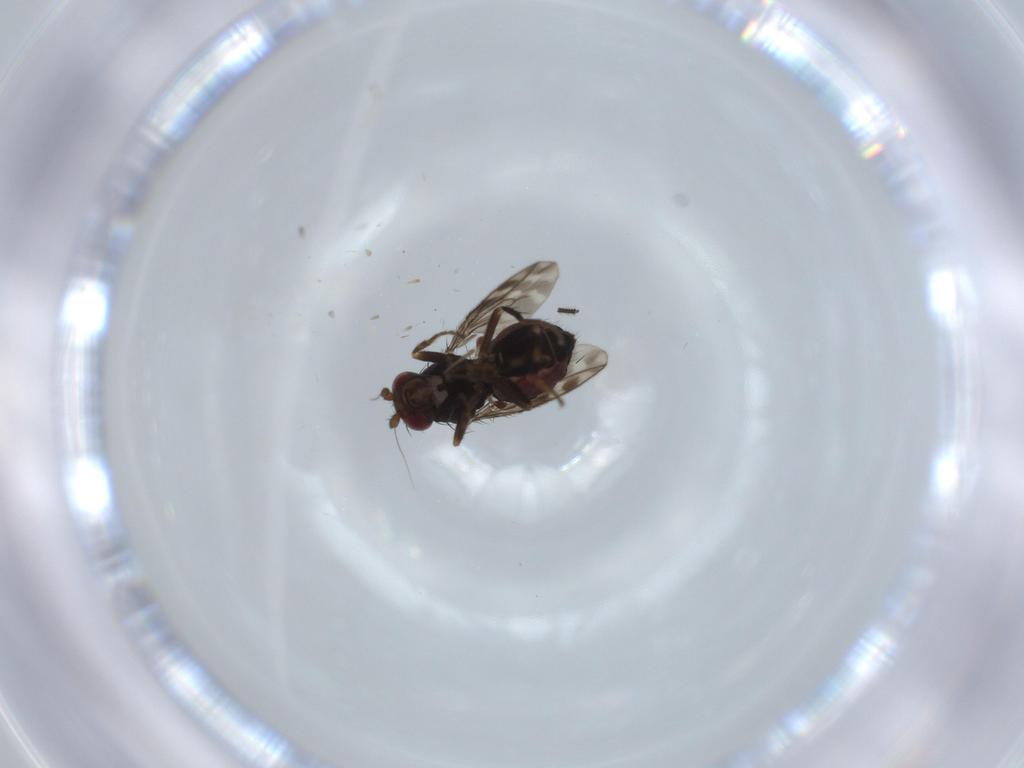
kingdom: Animalia
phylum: Arthropoda
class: Insecta
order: Diptera
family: Sphaeroceridae
